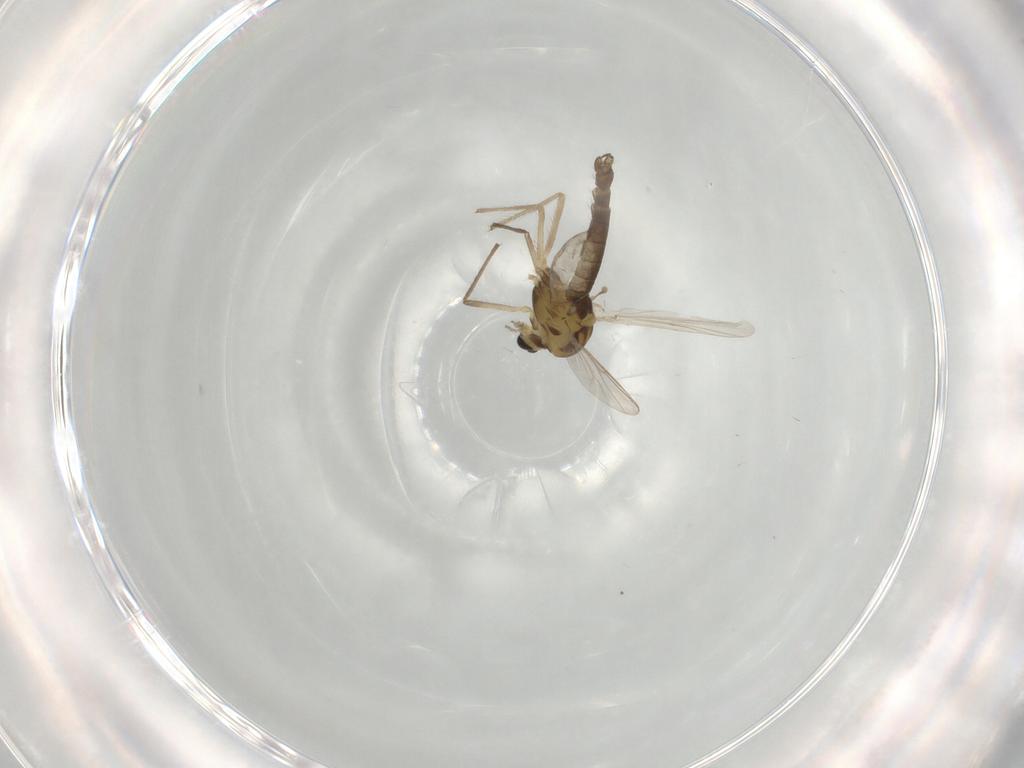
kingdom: Animalia
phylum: Arthropoda
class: Insecta
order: Diptera
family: Chironomidae
